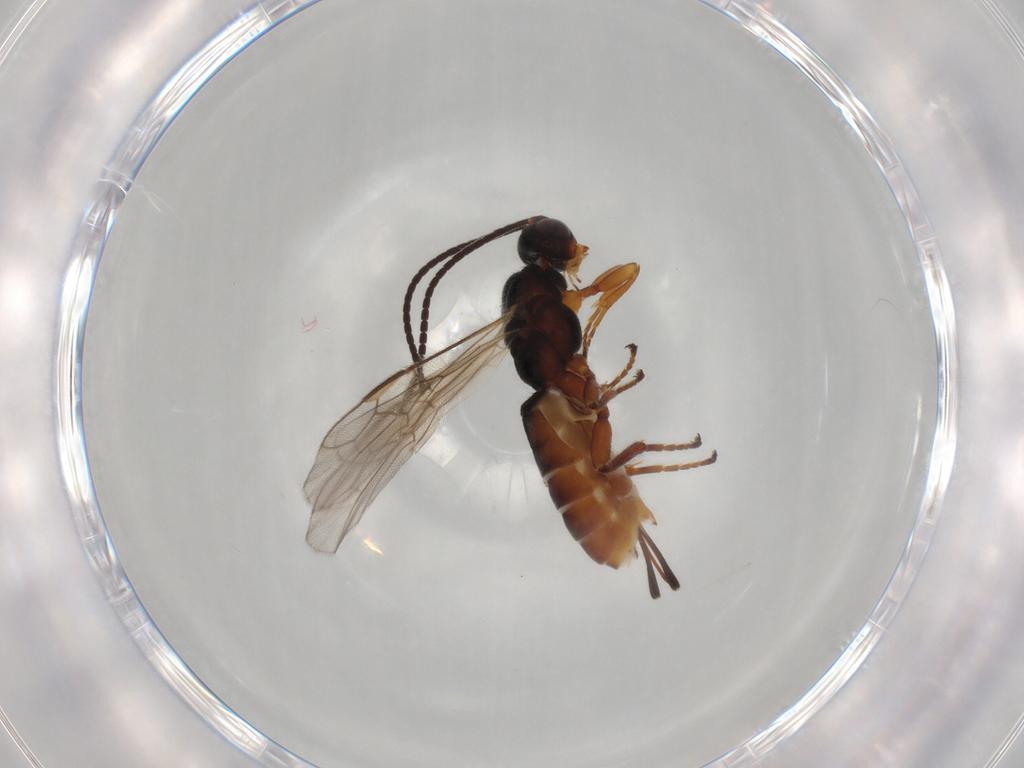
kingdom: Animalia
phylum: Arthropoda
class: Insecta
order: Hymenoptera
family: Braconidae
